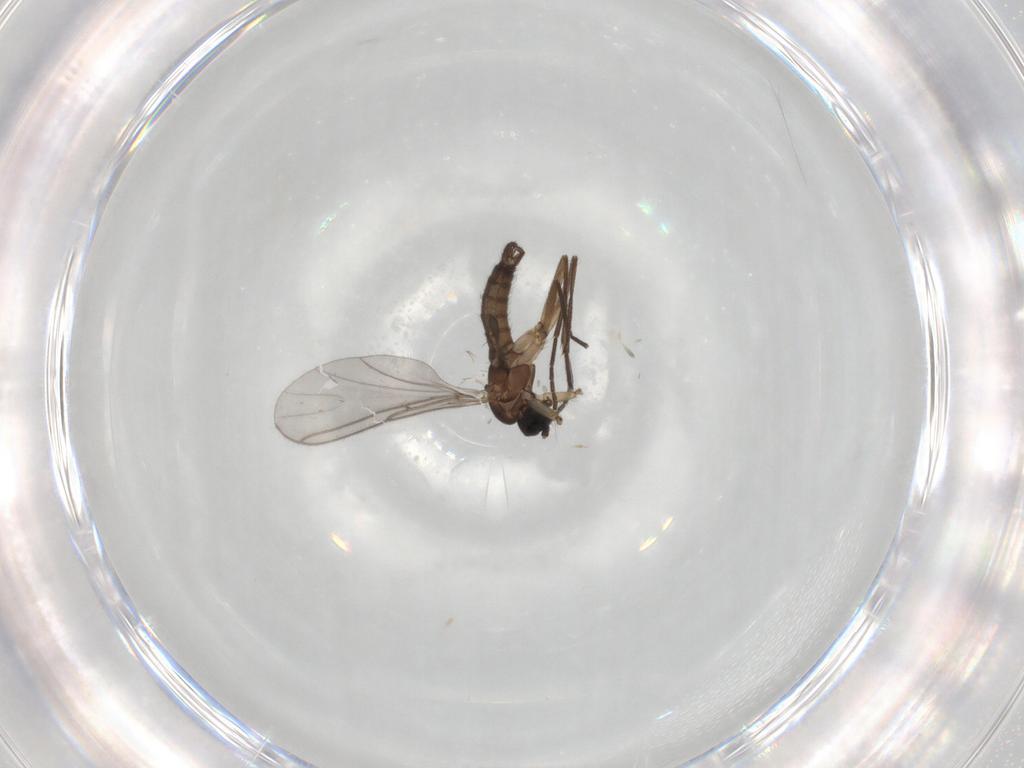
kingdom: Animalia
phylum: Arthropoda
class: Insecta
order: Diptera
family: Sciaridae
